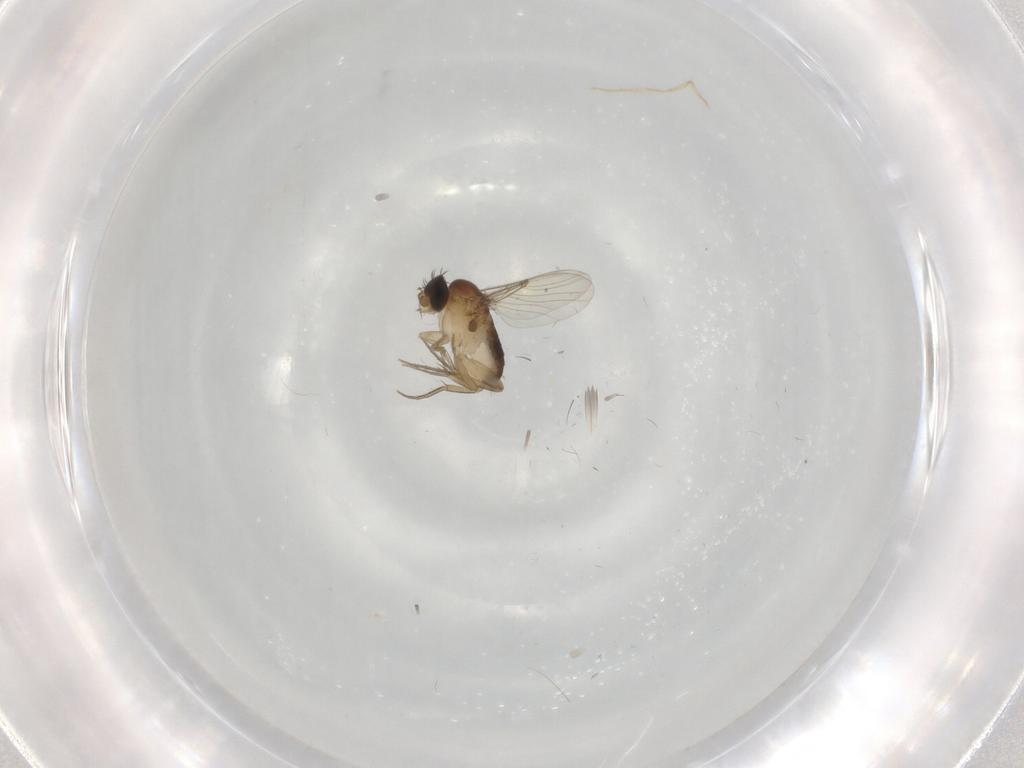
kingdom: Animalia
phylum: Arthropoda
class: Insecta
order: Diptera
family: Phoridae
